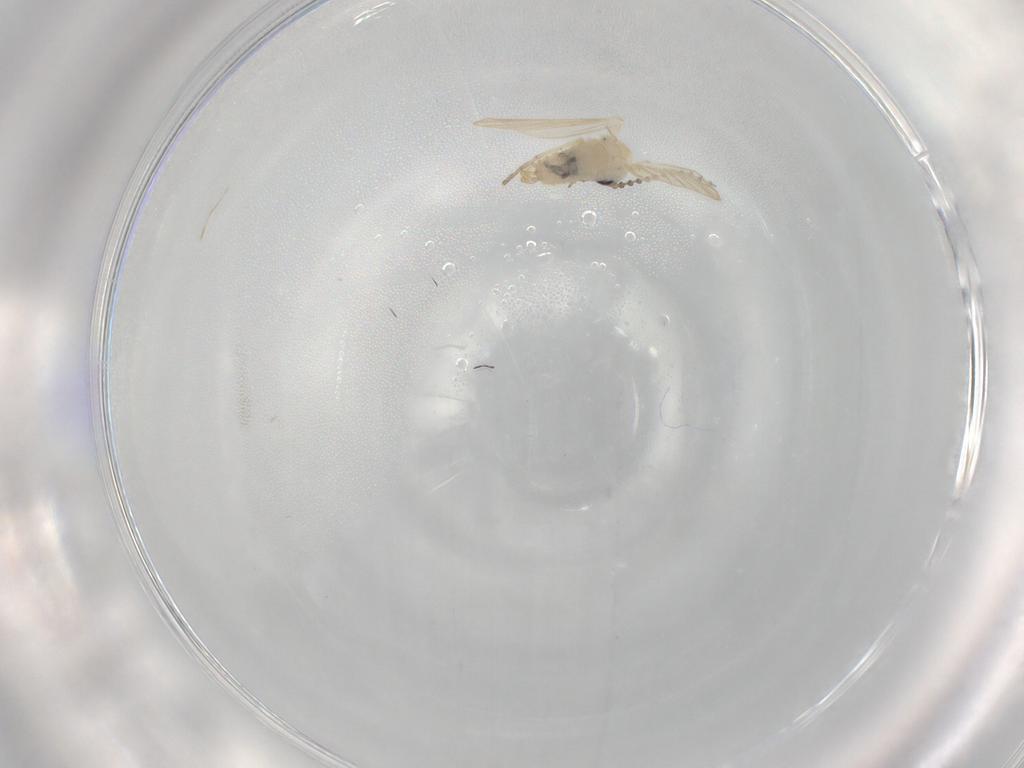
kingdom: Animalia
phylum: Arthropoda
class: Insecta
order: Diptera
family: Psychodidae
